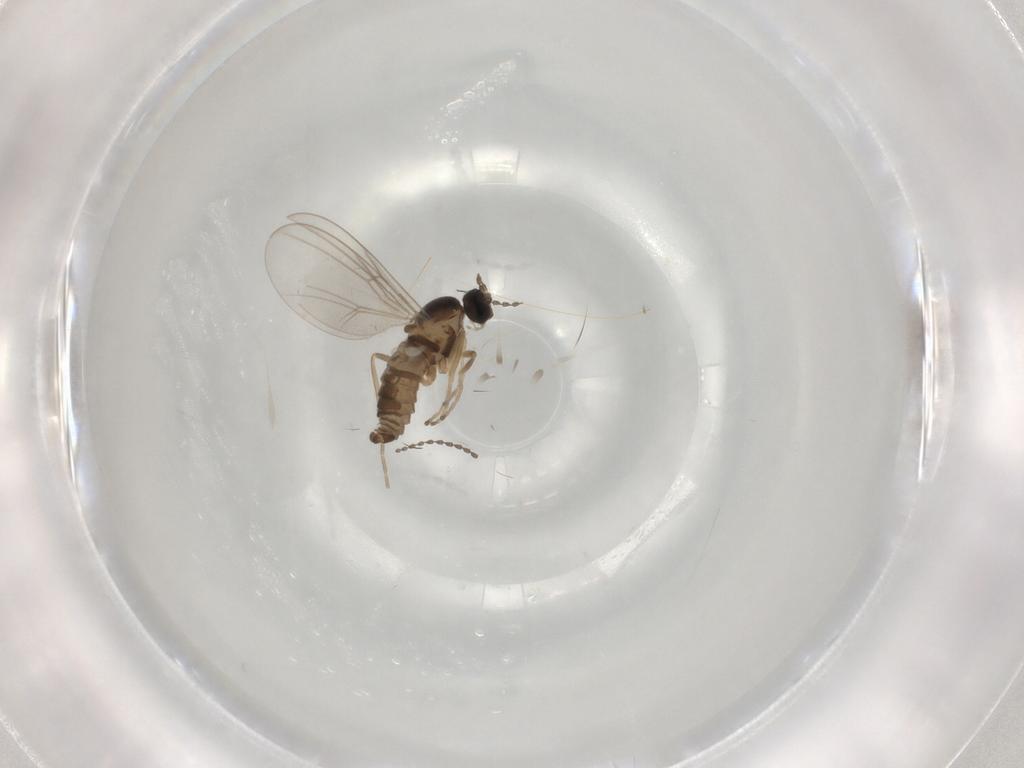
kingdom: Animalia
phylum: Arthropoda
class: Insecta
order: Diptera
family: Cecidomyiidae
